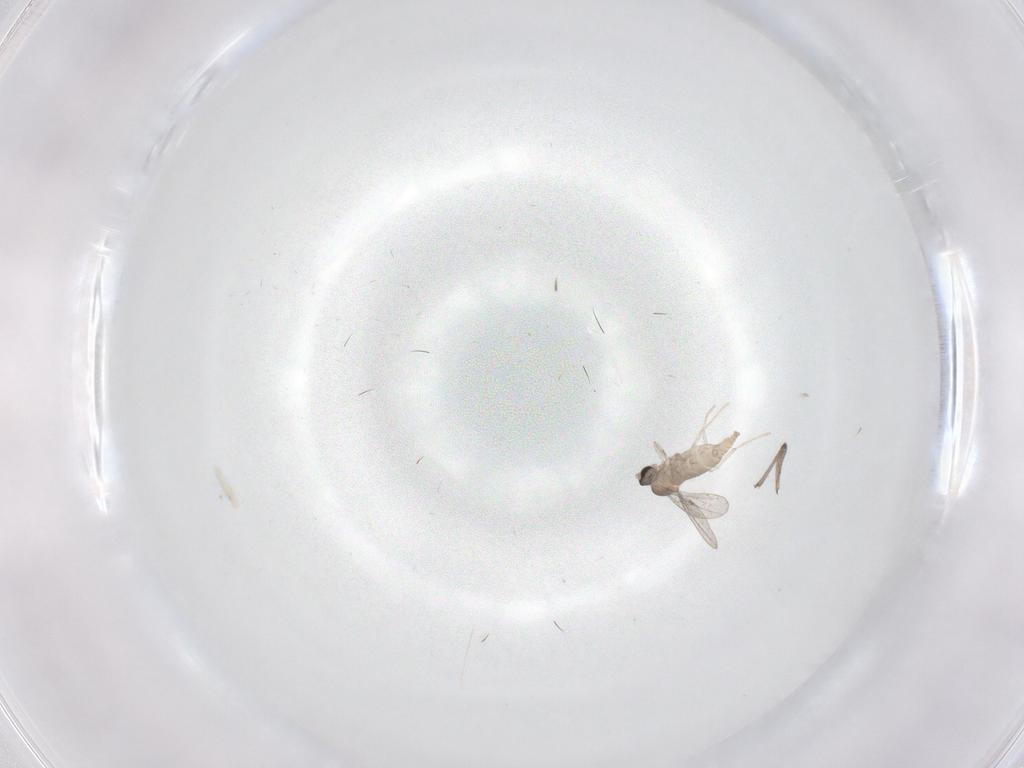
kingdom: Animalia
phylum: Arthropoda
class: Insecta
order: Diptera
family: Cecidomyiidae
